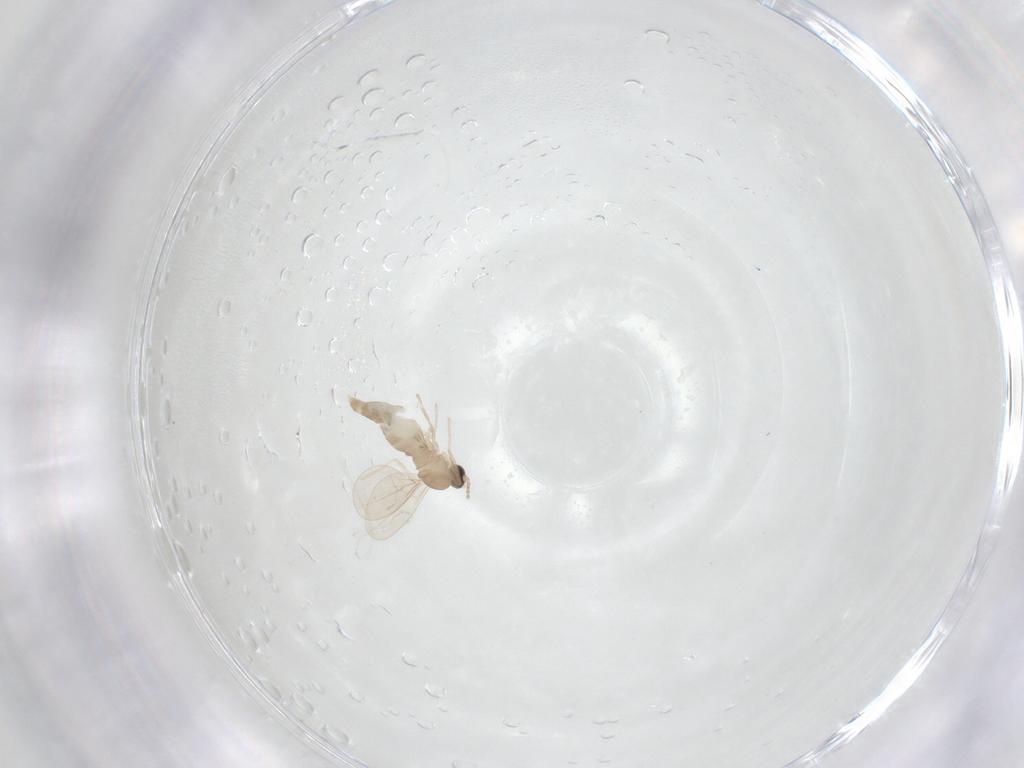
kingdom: Animalia
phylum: Arthropoda
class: Insecta
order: Diptera
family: Cecidomyiidae
